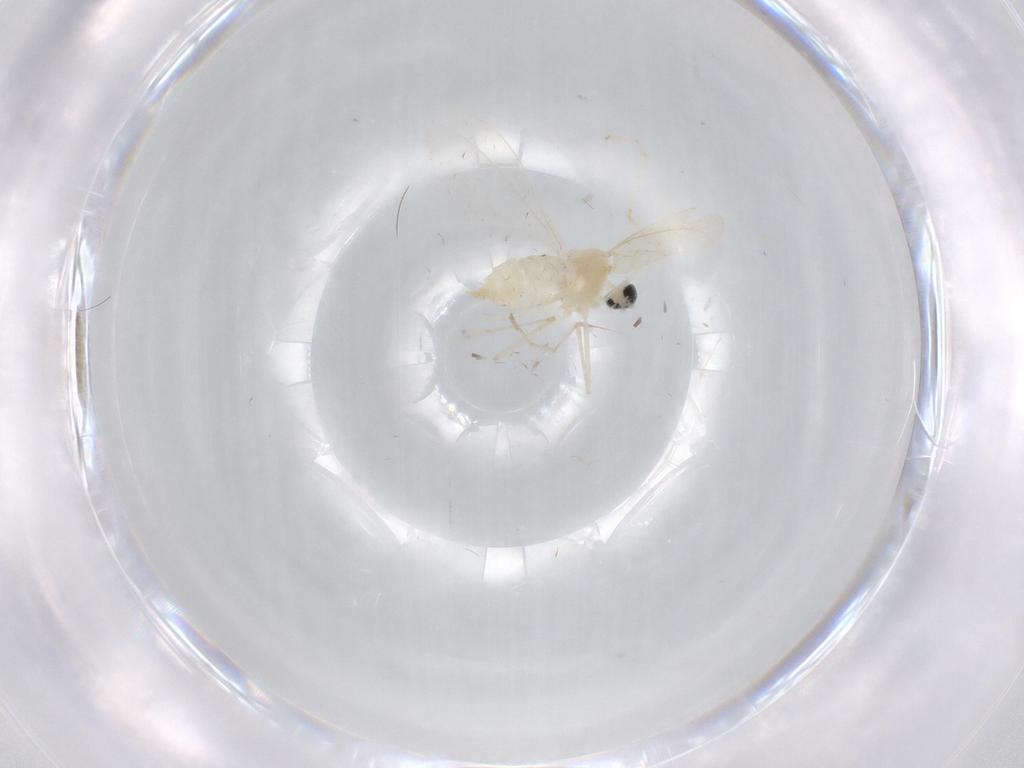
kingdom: Animalia
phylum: Arthropoda
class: Insecta
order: Diptera
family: Cecidomyiidae
